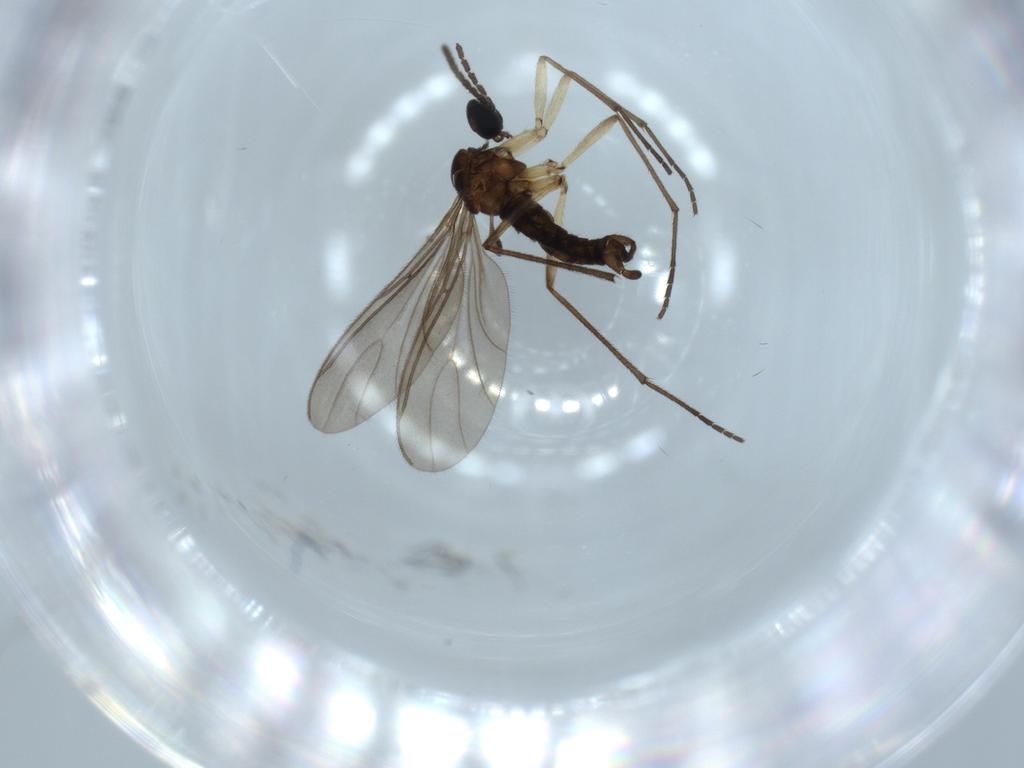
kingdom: Animalia
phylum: Arthropoda
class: Insecta
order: Diptera
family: Sciaridae
